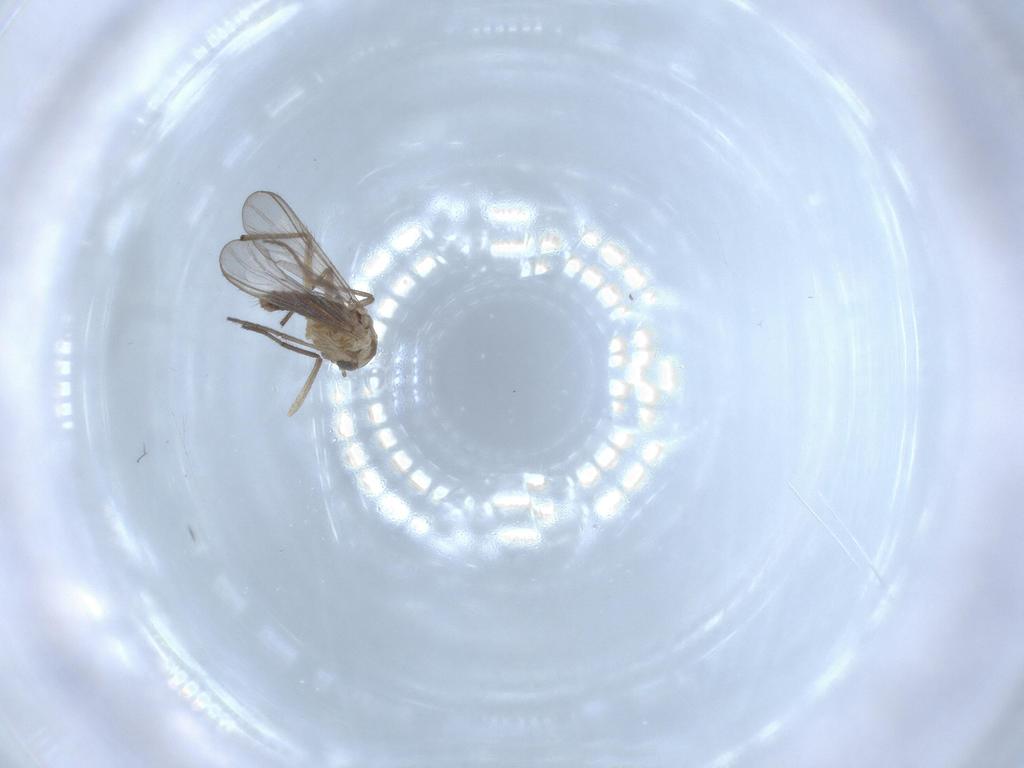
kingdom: Animalia
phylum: Arthropoda
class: Insecta
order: Diptera
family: Chironomidae
